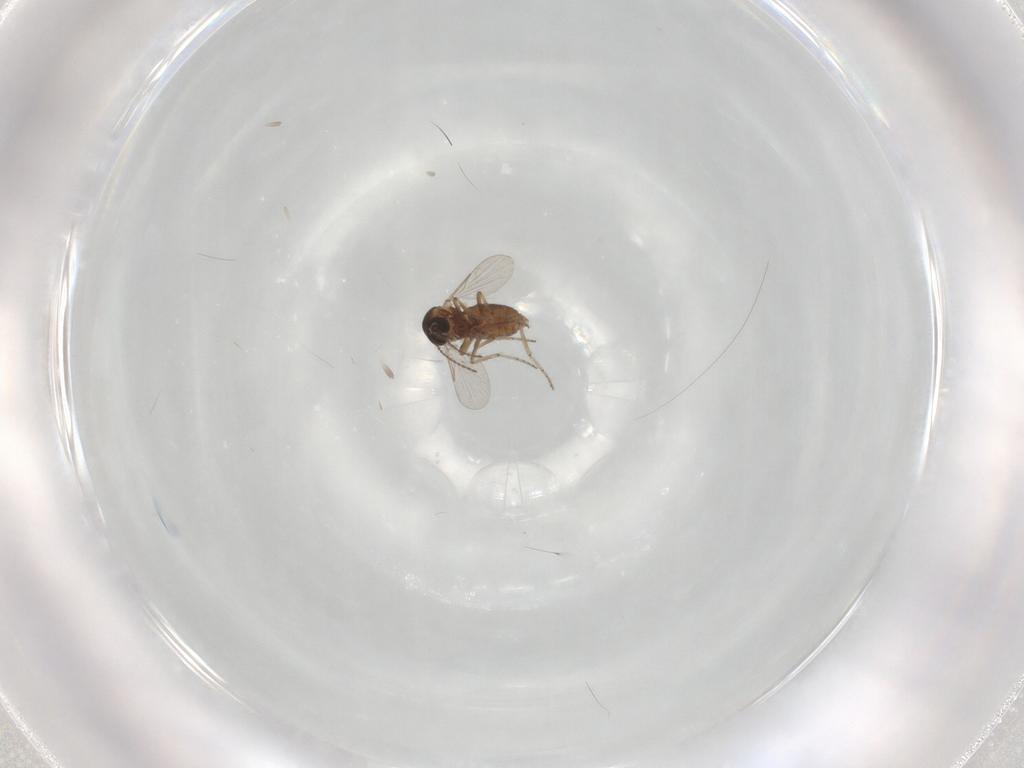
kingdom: Animalia
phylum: Arthropoda
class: Insecta
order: Diptera
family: Ceratopogonidae
